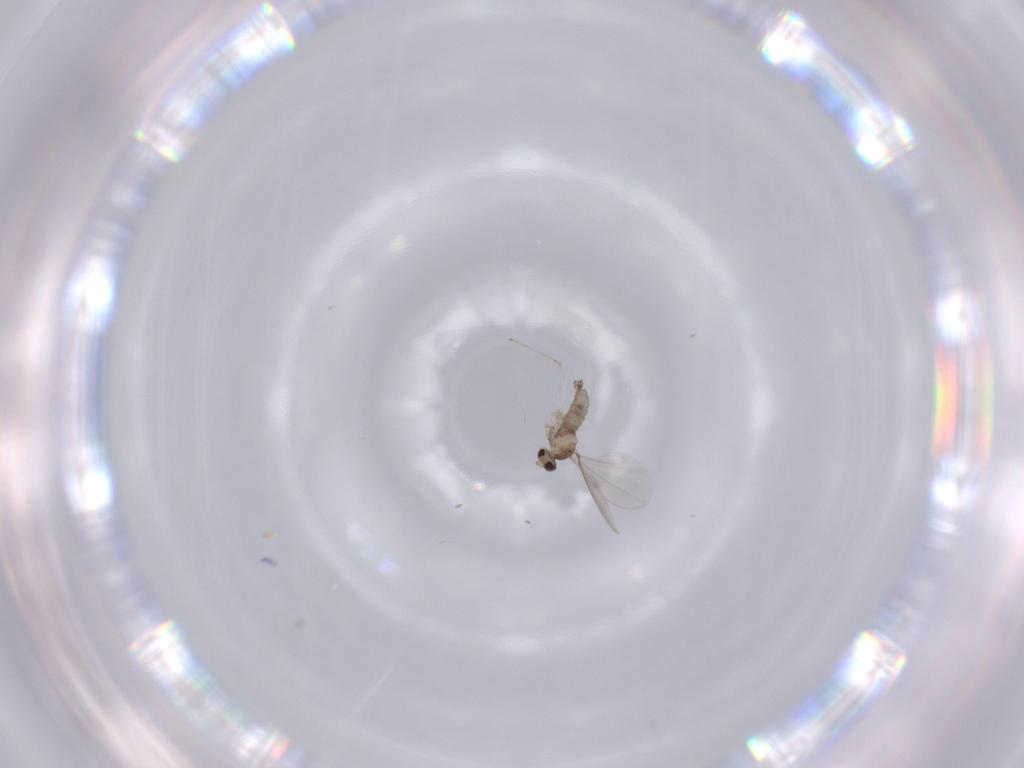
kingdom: Animalia
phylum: Arthropoda
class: Insecta
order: Diptera
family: Cecidomyiidae
